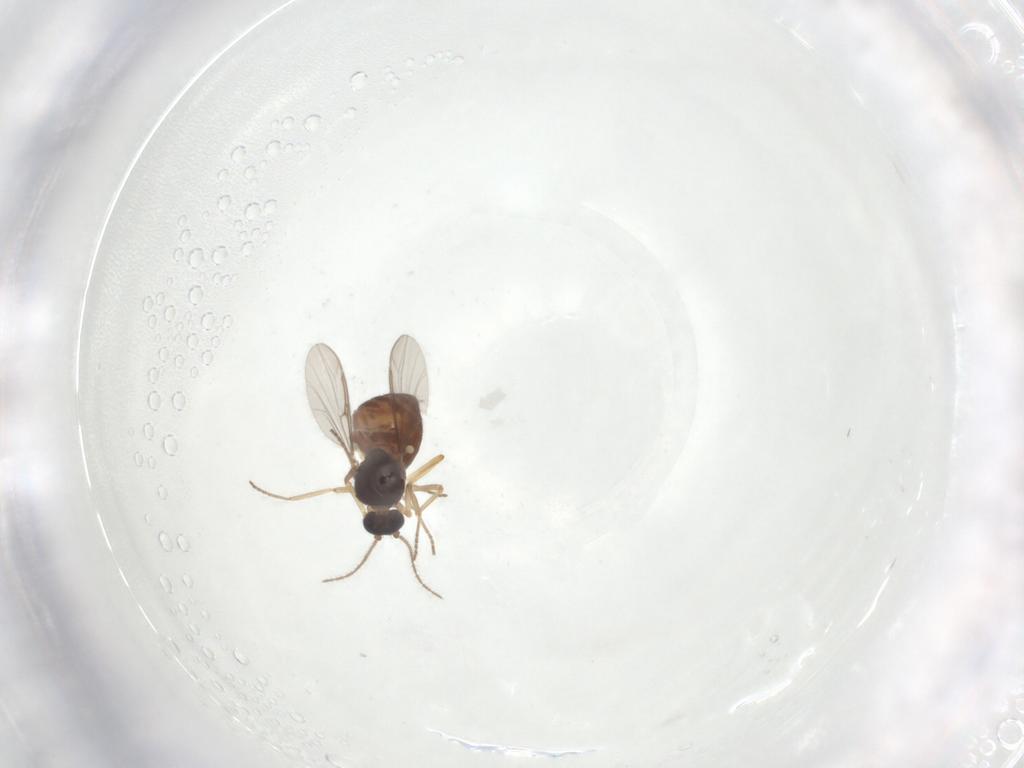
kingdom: Animalia
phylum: Arthropoda
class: Insecta
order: Diptera
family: Ceratopogonidae
